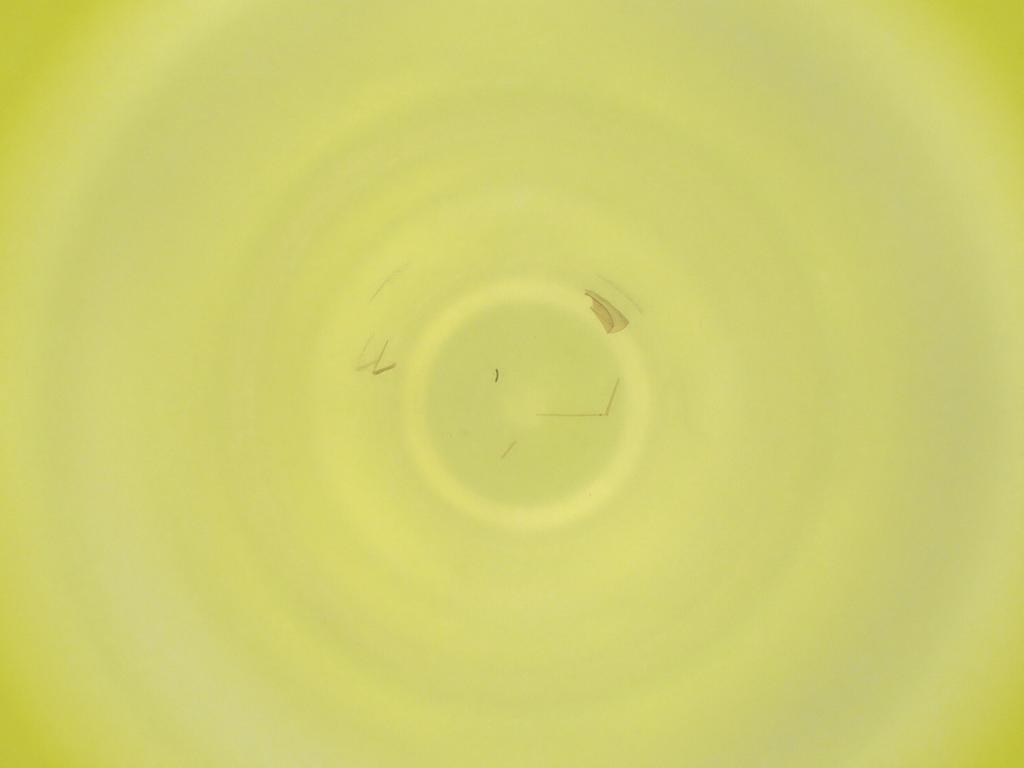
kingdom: Animalia
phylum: Arthropoda
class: Insecta
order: Diptera
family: Cecidomyiidae
